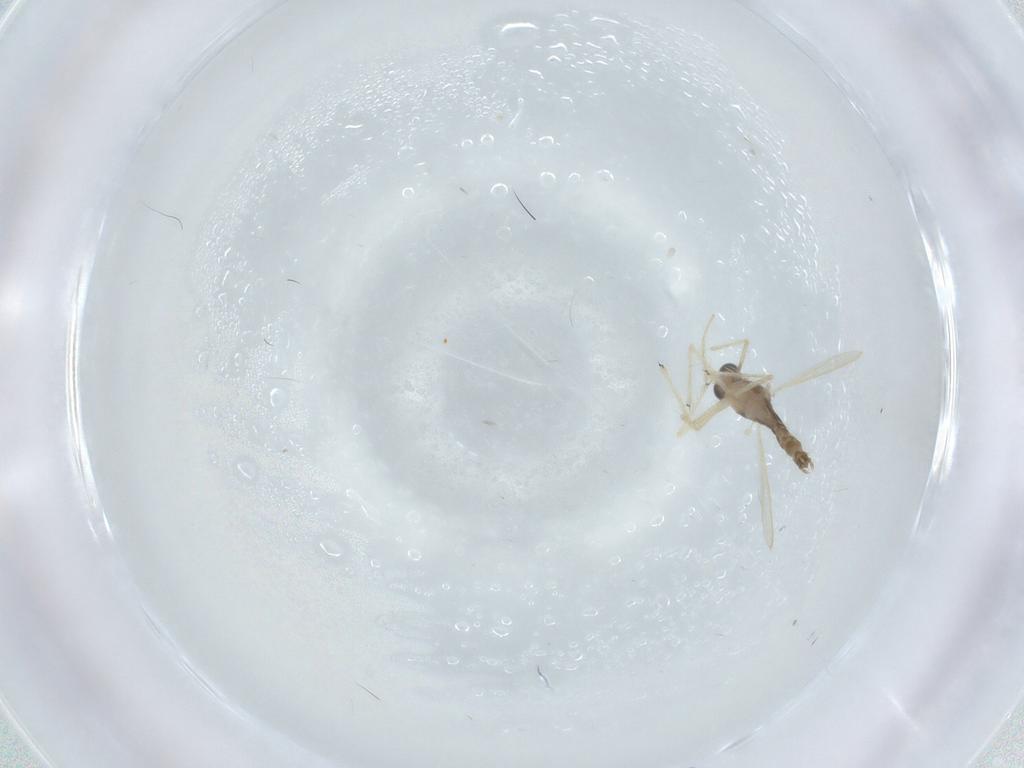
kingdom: Animalia
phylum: Arthropoda
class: Insecta
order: Diptera
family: Chironomidae
